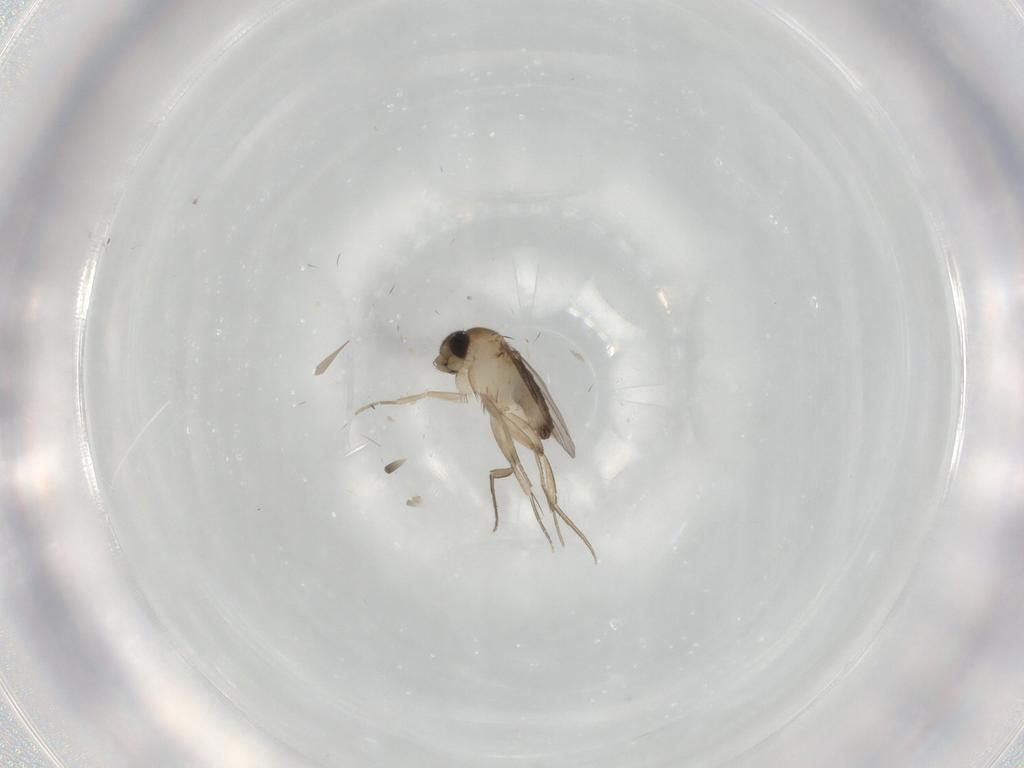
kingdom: Animalia
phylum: Arthropoda
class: Insecta
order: Diptera
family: Phoridae
